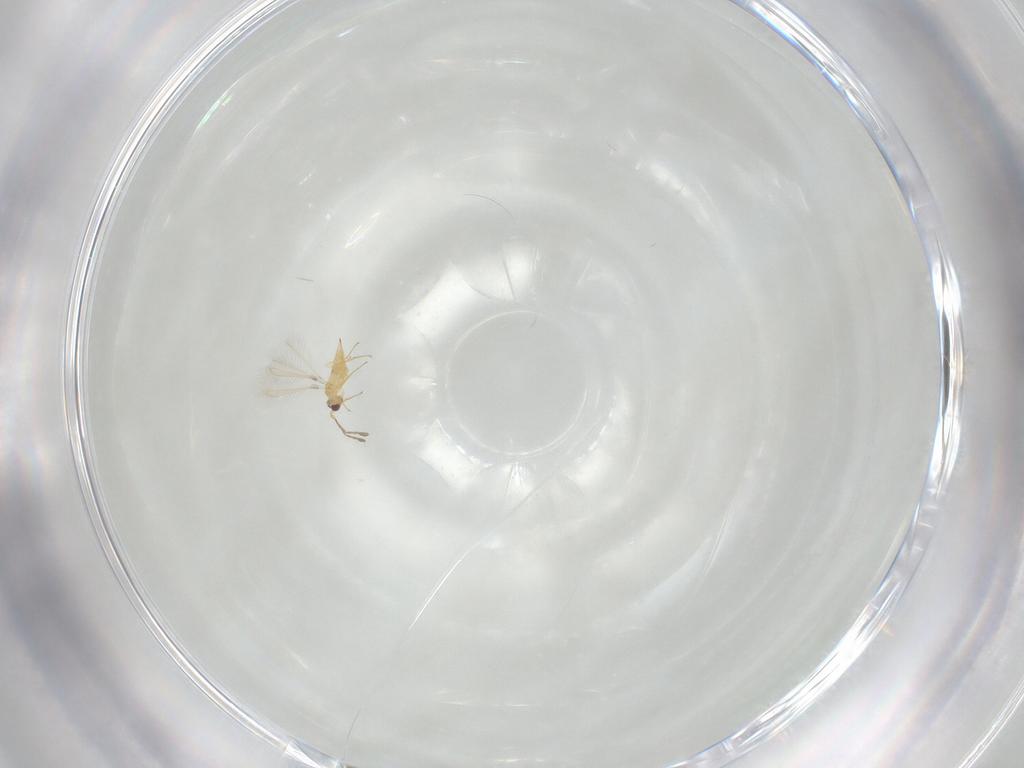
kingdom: Animalia
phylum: Arthropoda
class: Insecta
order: Hymenoptera
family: Mymaridae
